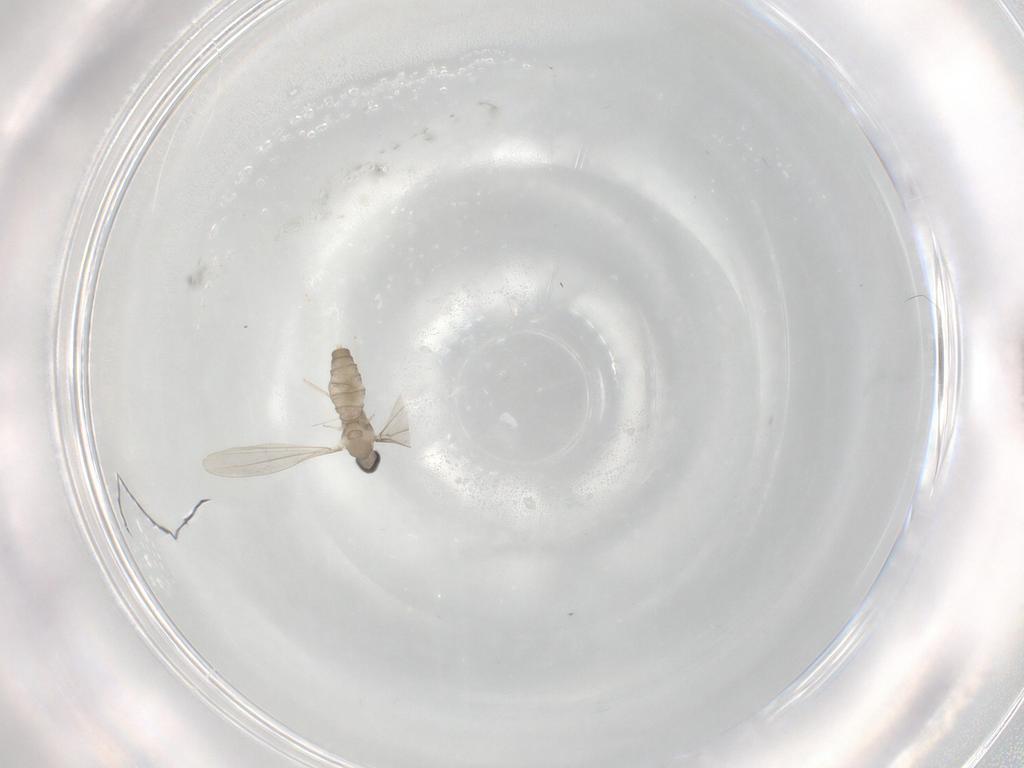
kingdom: Animalia
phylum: Arthropoda
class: Insecta
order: Diptera
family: Cecidomyiidae
